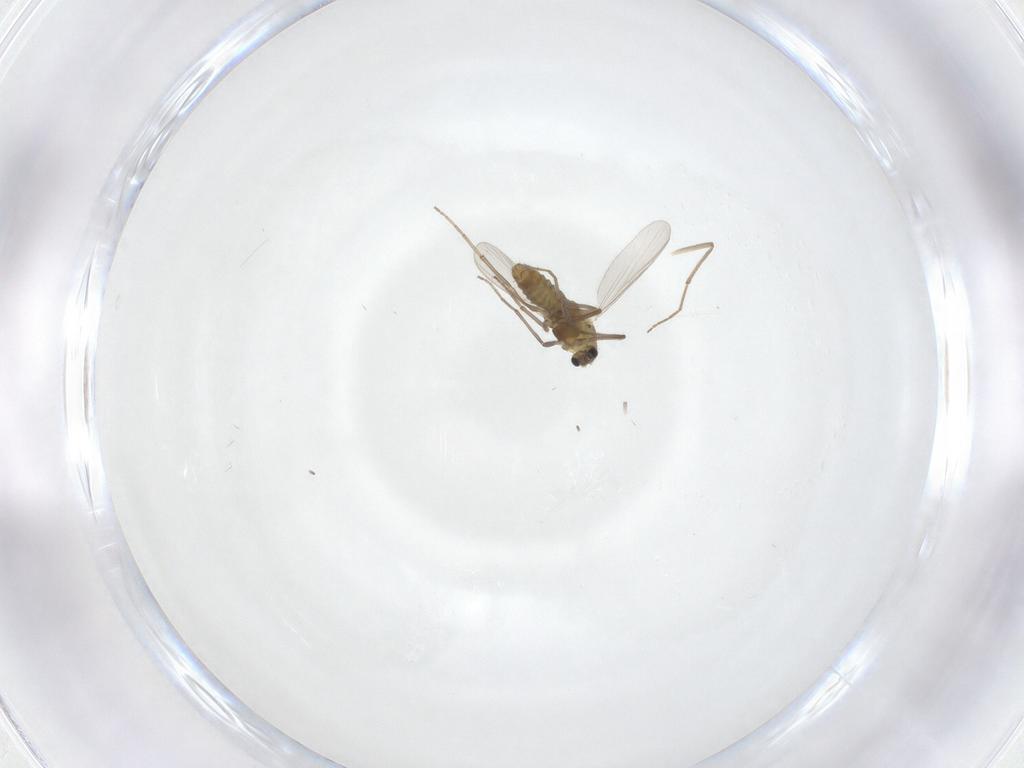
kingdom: Animalia
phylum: Arthropoda
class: Insecta
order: Diptera
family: Chironomidae
